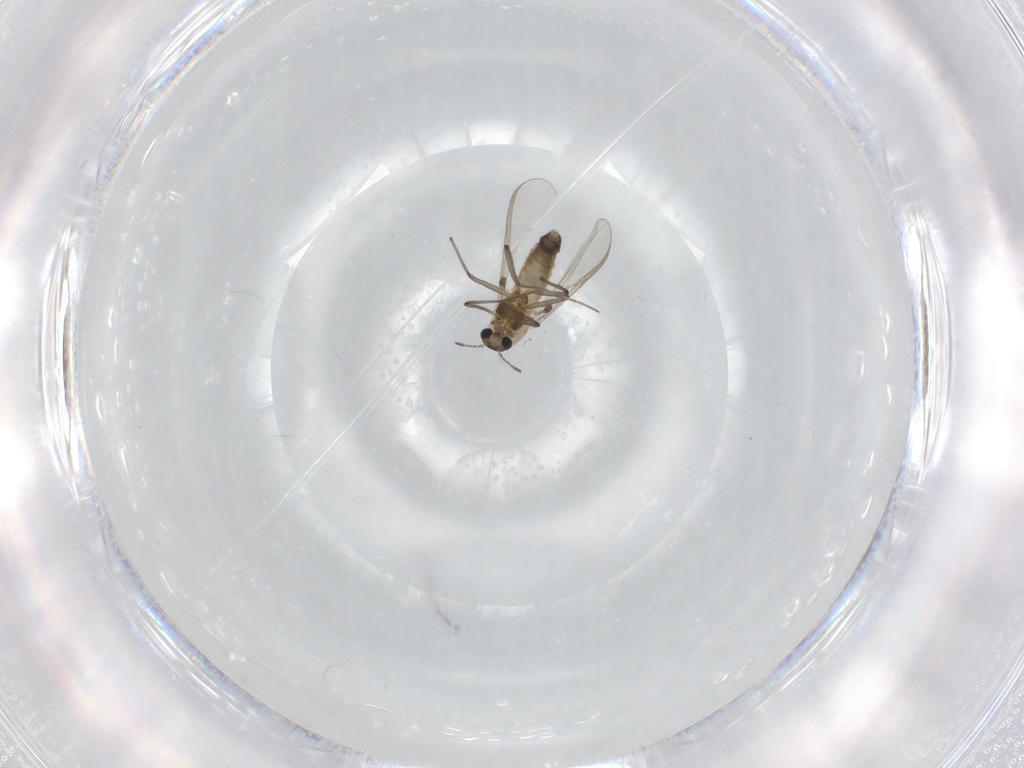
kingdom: Animalia
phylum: Arthropoda
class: Insecta
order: Diptera
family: Chironomidae
